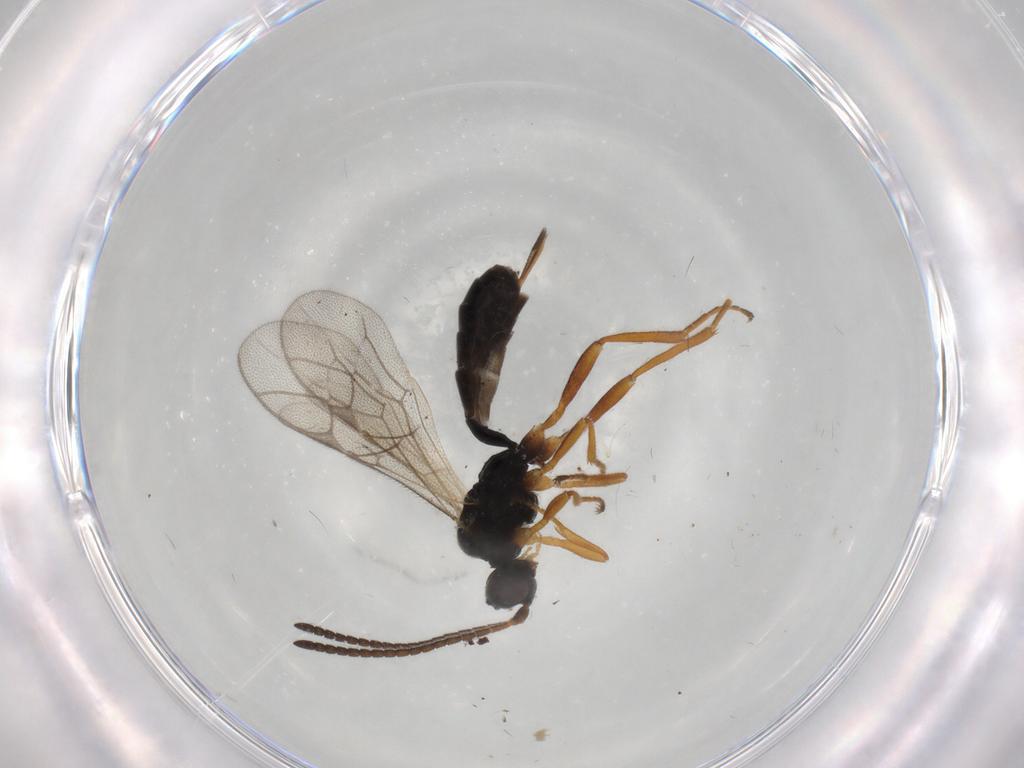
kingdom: Animalia
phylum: Arthropoda
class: Insecta
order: Hymenoptera
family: Ichneumonidae
